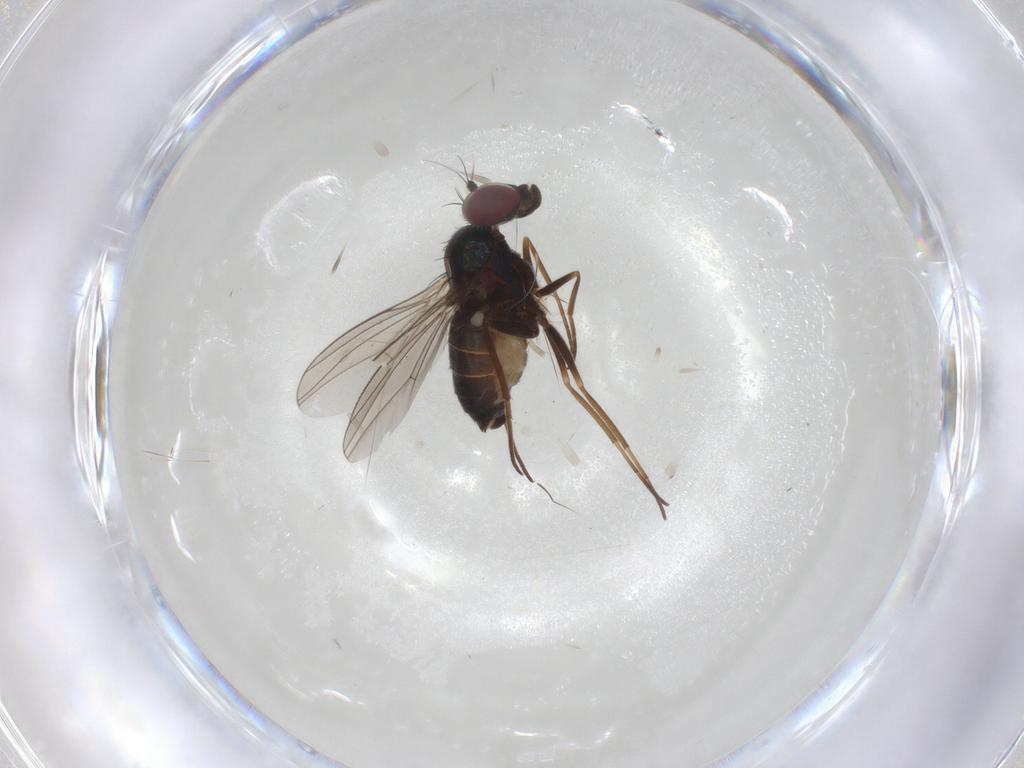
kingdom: Animalia
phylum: Arthropoda
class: Insecta
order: Diptera
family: Dolichopodidae
